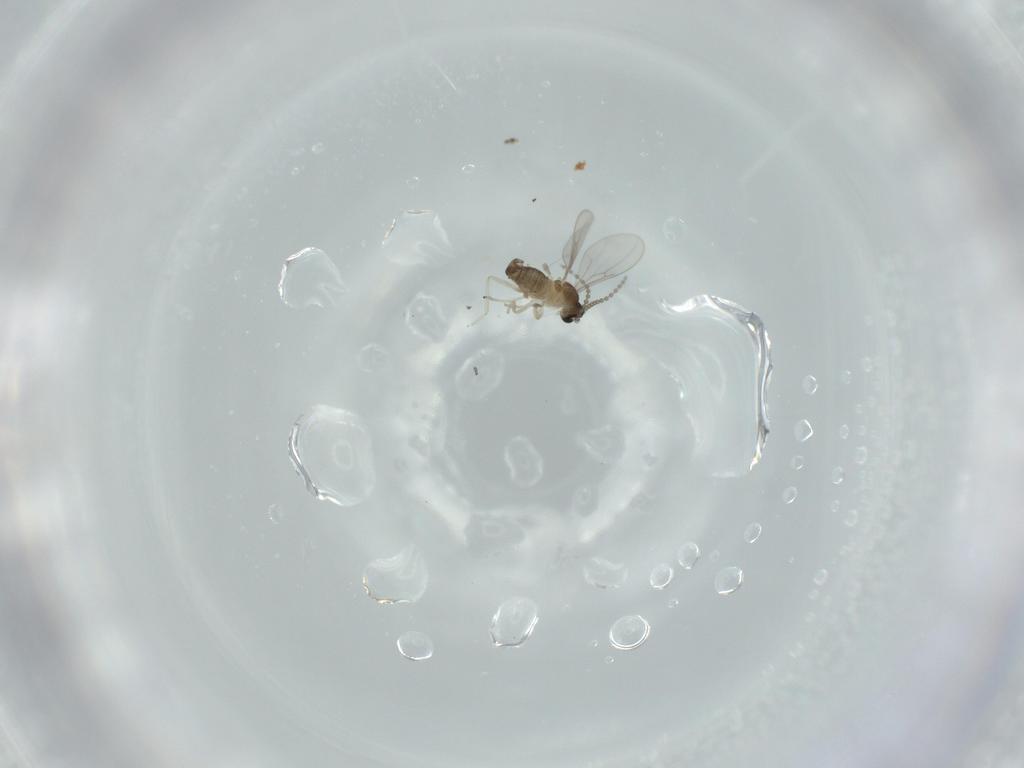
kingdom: Animalia
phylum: Arthropoda
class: Insecta
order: Diptera
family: Cecidomyiidae
